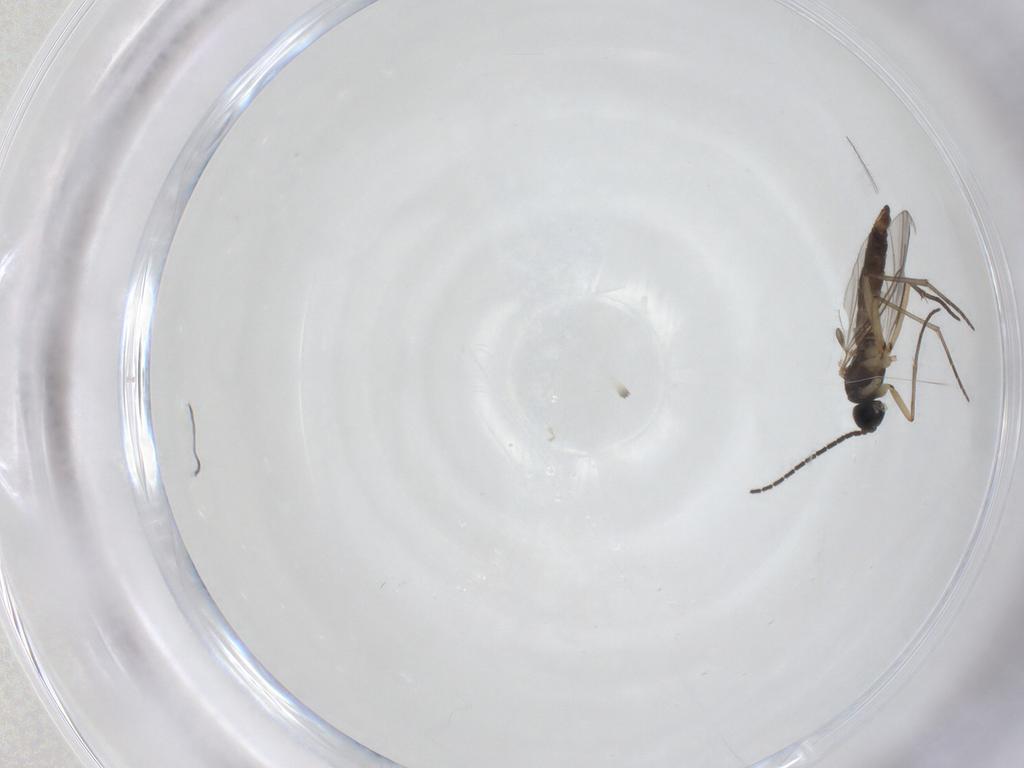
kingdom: Animalia
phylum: Arthropoda
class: Insecta
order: Diptera
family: Sciaridae
